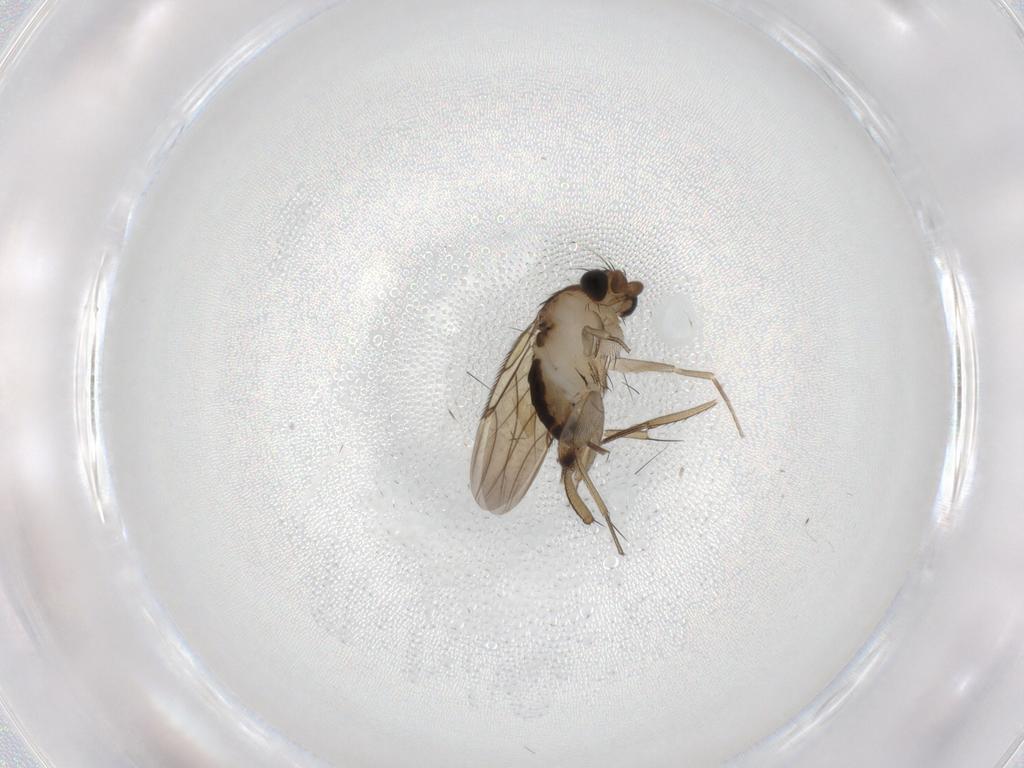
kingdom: Animalia
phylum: Arthropoda
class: Insecta
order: Diptera
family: Phoridae
